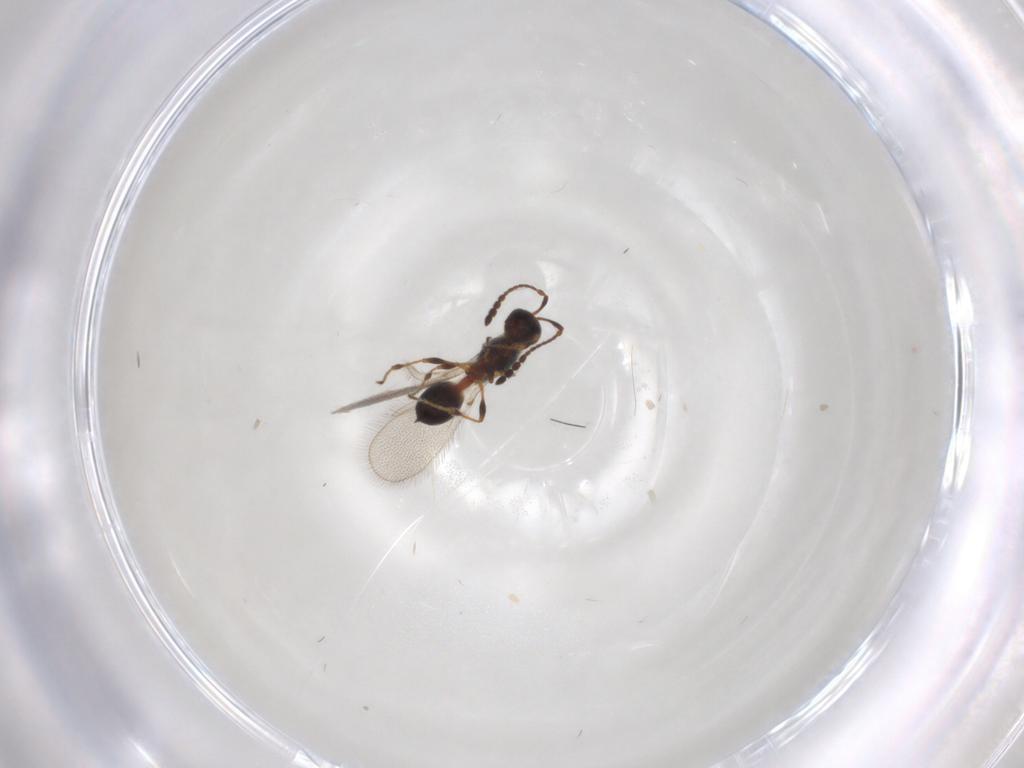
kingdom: Animalia
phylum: Arthropoda
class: Insecta
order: Hymenoptera
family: Diapriidae
